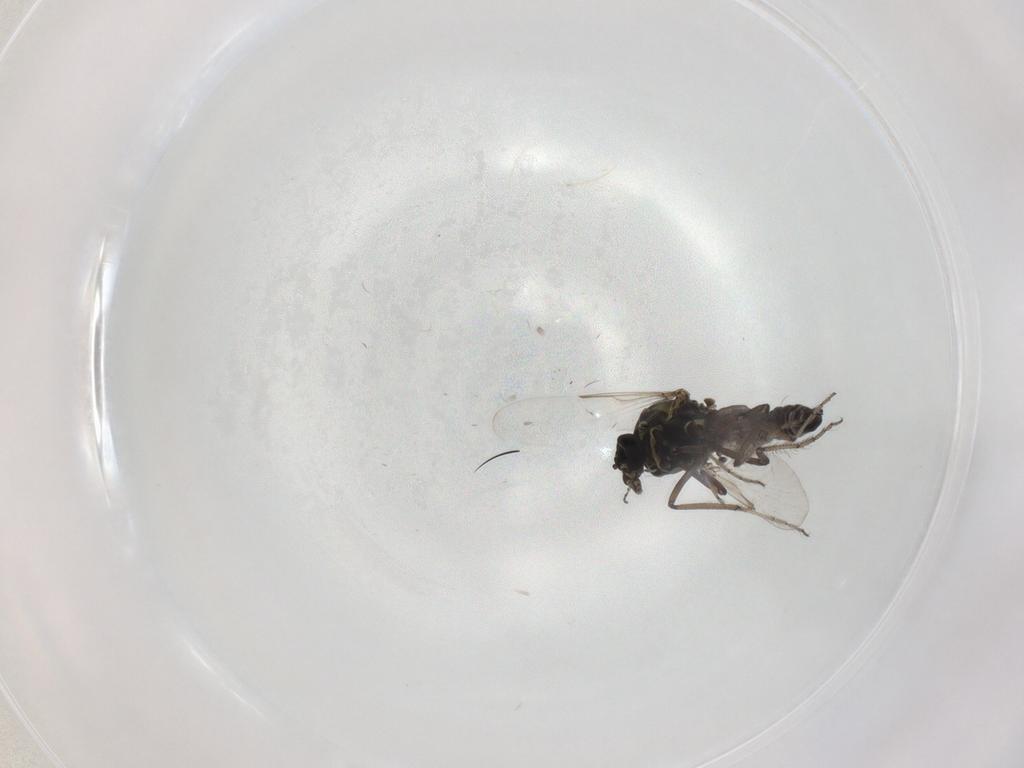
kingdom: Animalia
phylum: Arthropoda
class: Insecta
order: Diptera
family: Ceratopogonidae
